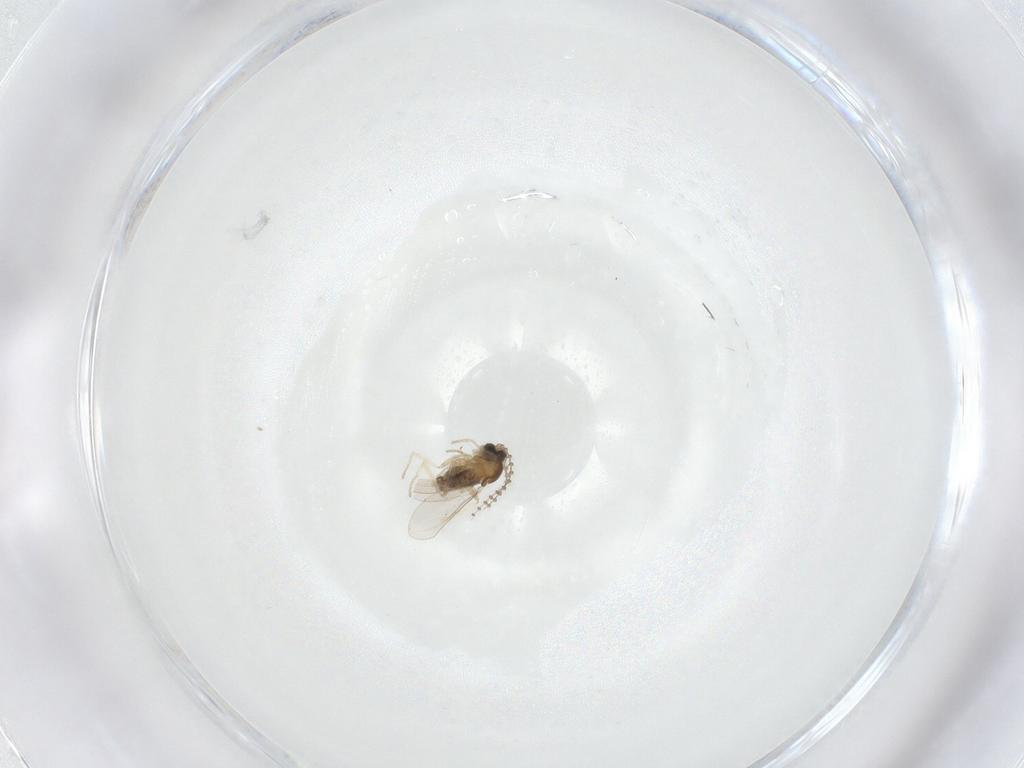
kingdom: Animalia
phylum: Arthropoda
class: Insecta
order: Diptera
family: Cecidomyiidae
